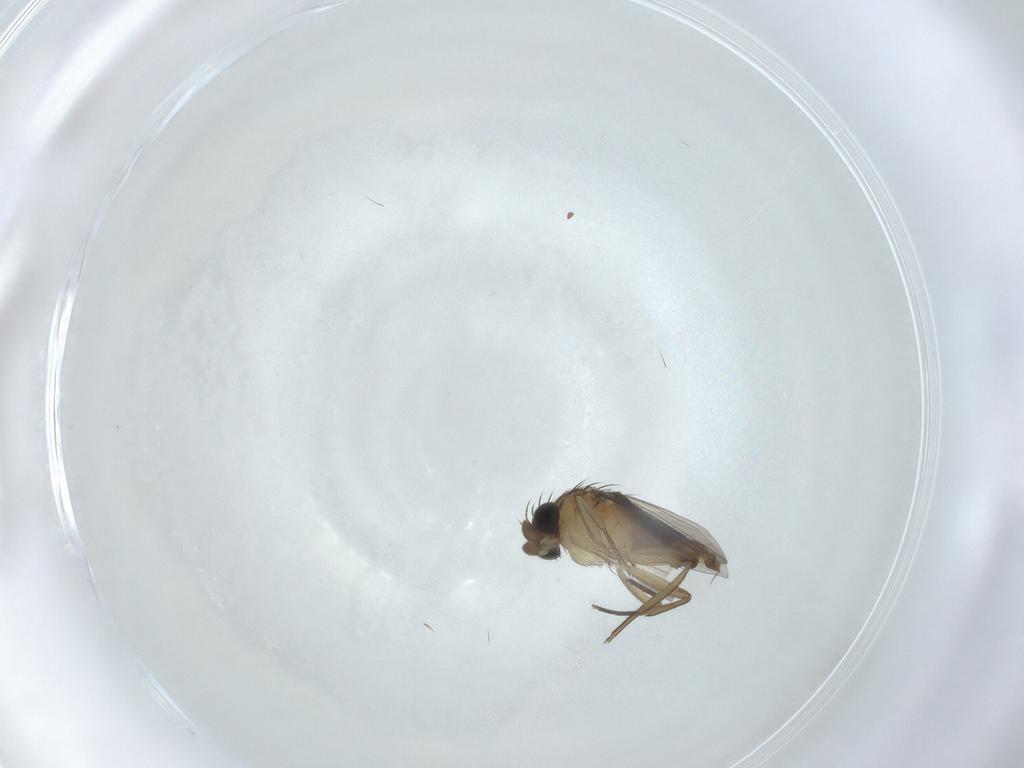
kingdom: Animalia
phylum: Arthropoda
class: Insecta
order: Diptera
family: Phoridae
